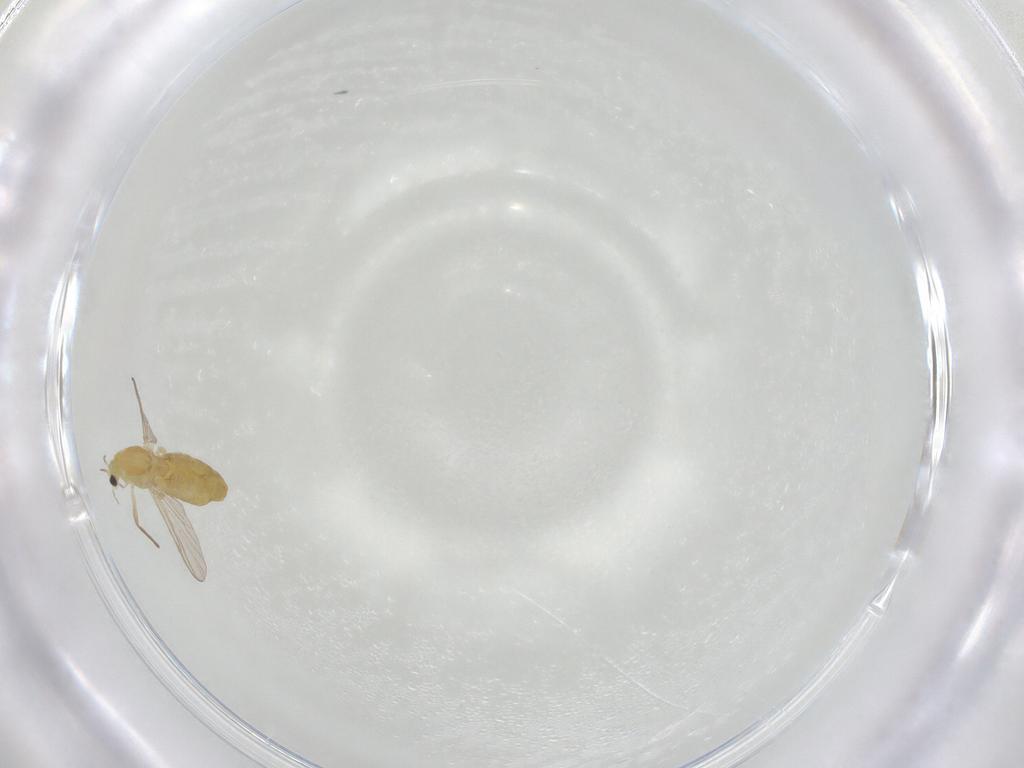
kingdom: Animalia
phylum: Arthropoda
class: Insecta
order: Diptera
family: Chironomidae
